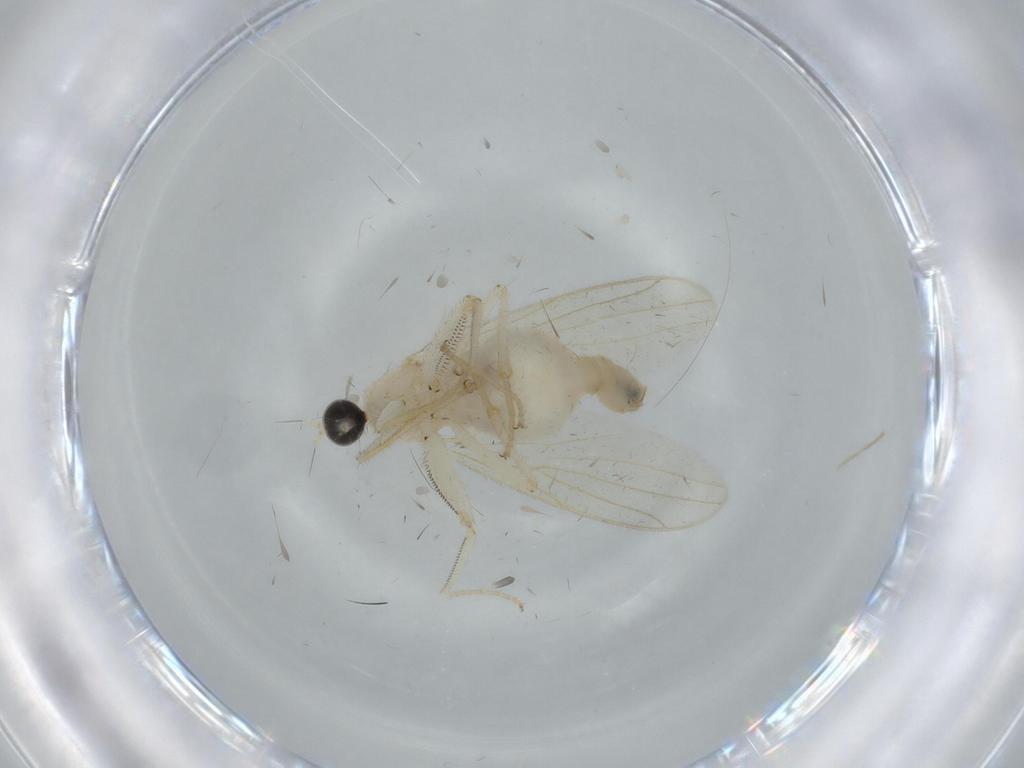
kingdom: Animalia
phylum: Arthropoda
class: Insecta
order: Diptera
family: Hybotidae
